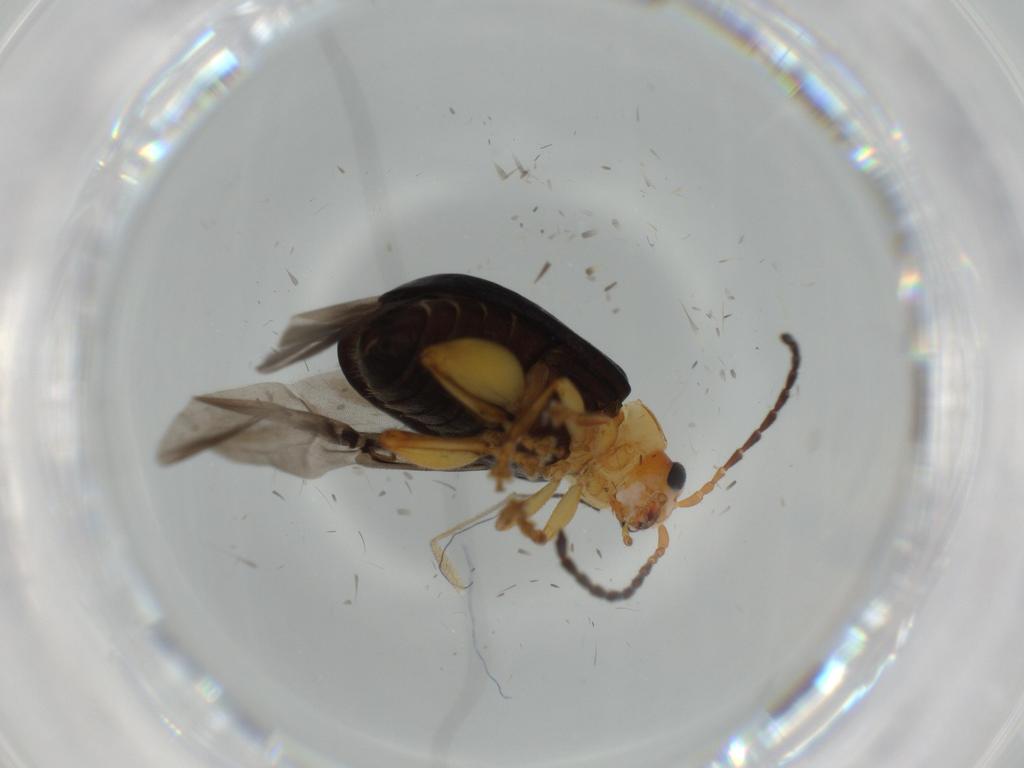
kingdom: Animalia
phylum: Arthropoda
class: Insecta
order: Coleoptera
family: Chrysomelidae
